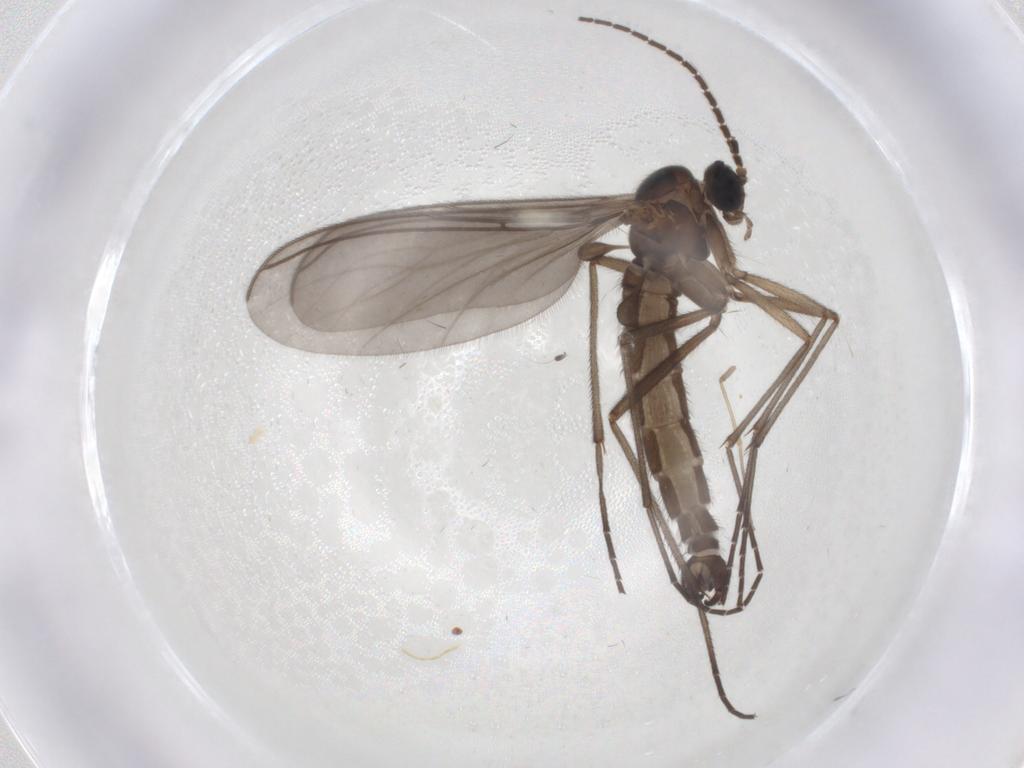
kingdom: Animalia
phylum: Arthropoda
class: Insecta
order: Diptera
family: Sciaridae
